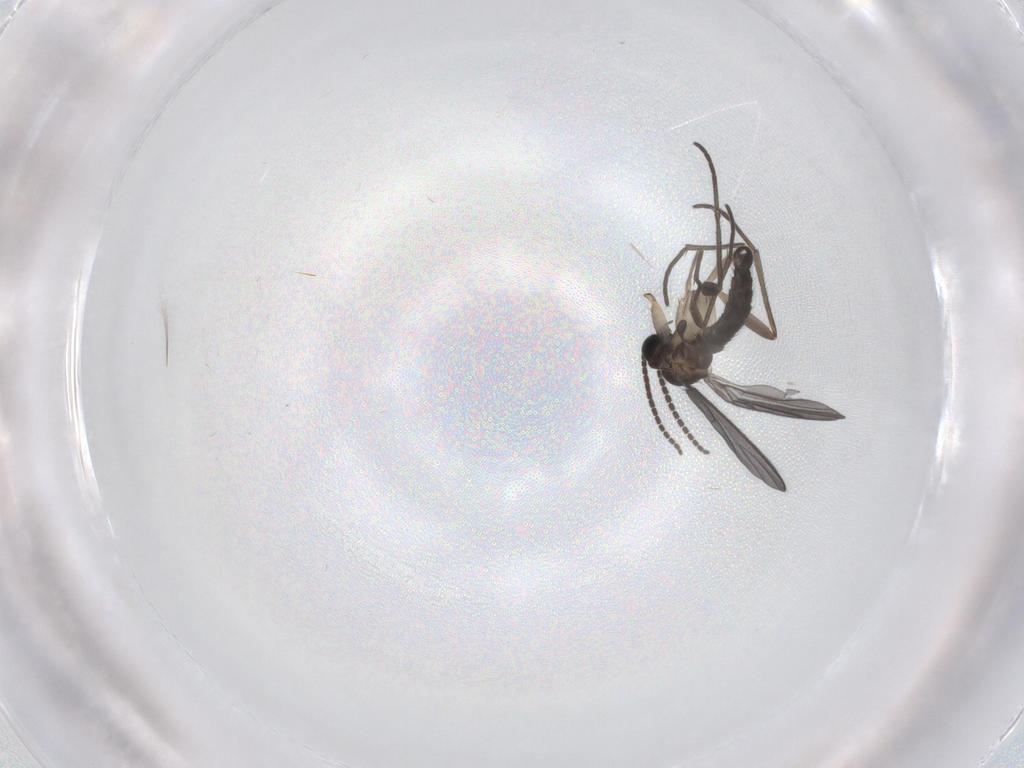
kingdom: Animalia
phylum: Arthropoda
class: Insecta
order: Diptera
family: Sciaridae
